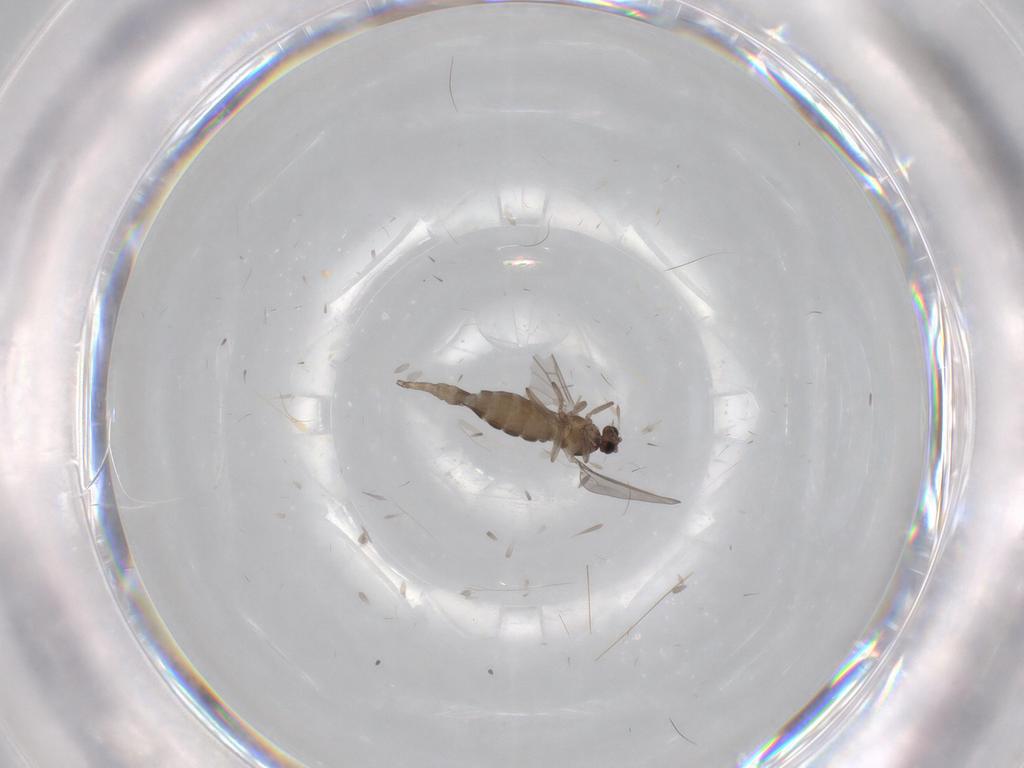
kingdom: Animalia
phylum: Arthropoda
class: Insecta
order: Diptera
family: Cecidomyiidae
